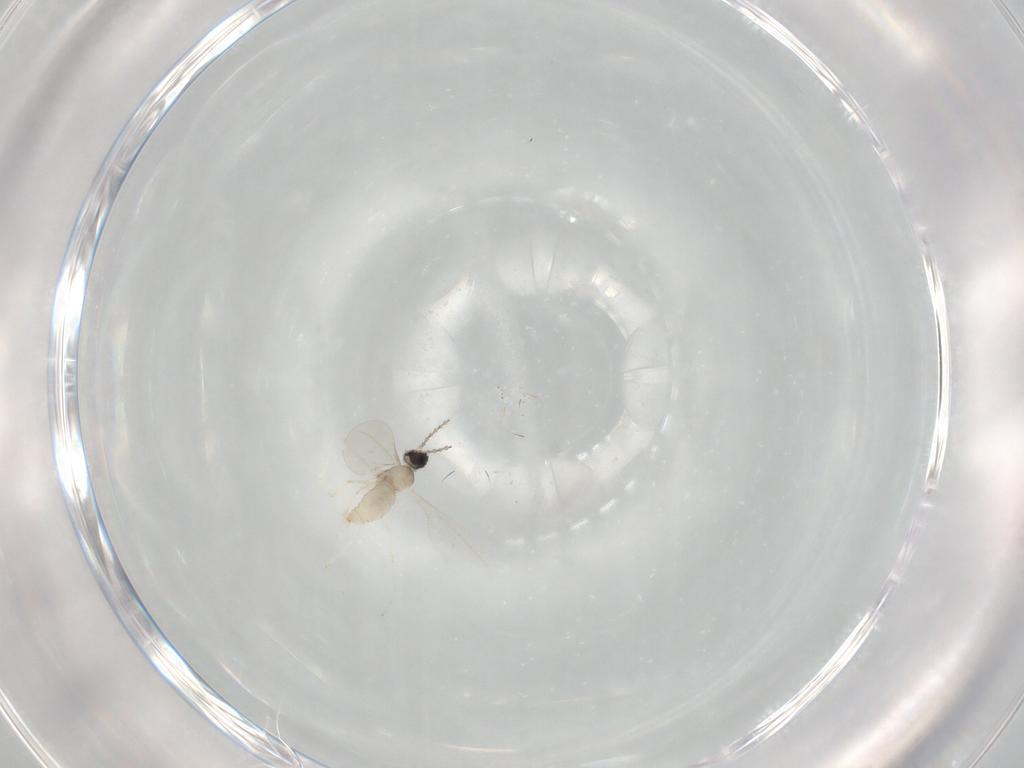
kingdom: Animalia
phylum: Arthropoda
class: Insecta
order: Diptera
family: Cecidomyiidae
